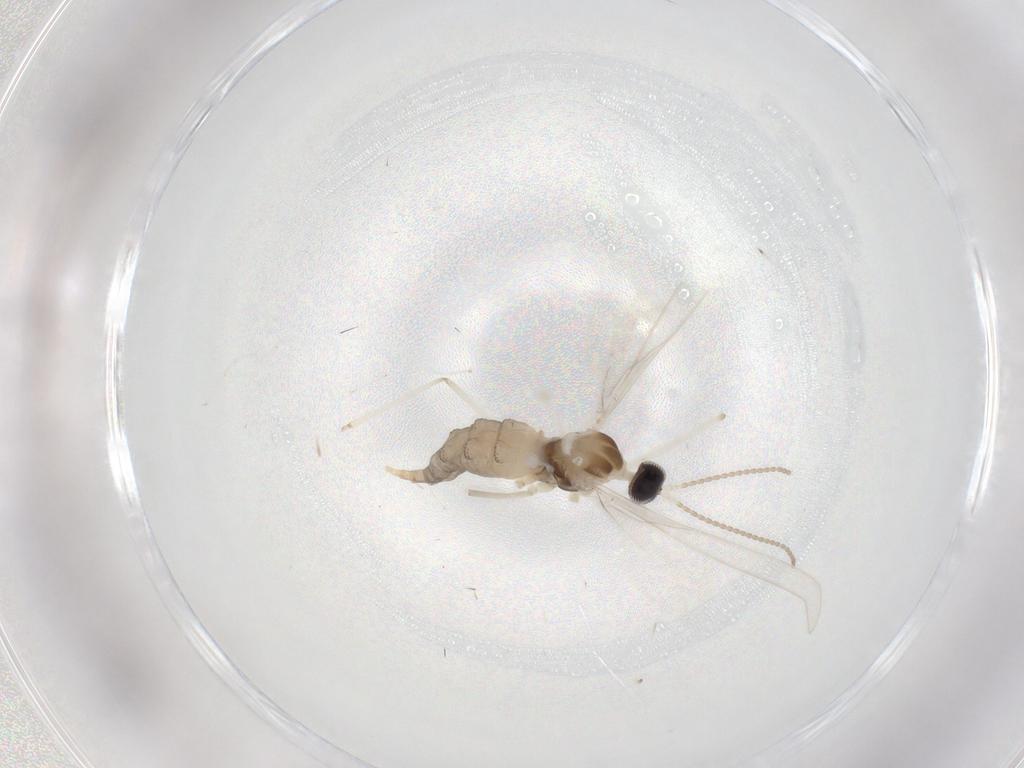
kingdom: Animalia
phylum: Arthropoda
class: Insecta
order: Diptera
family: Cecidomyiidae
